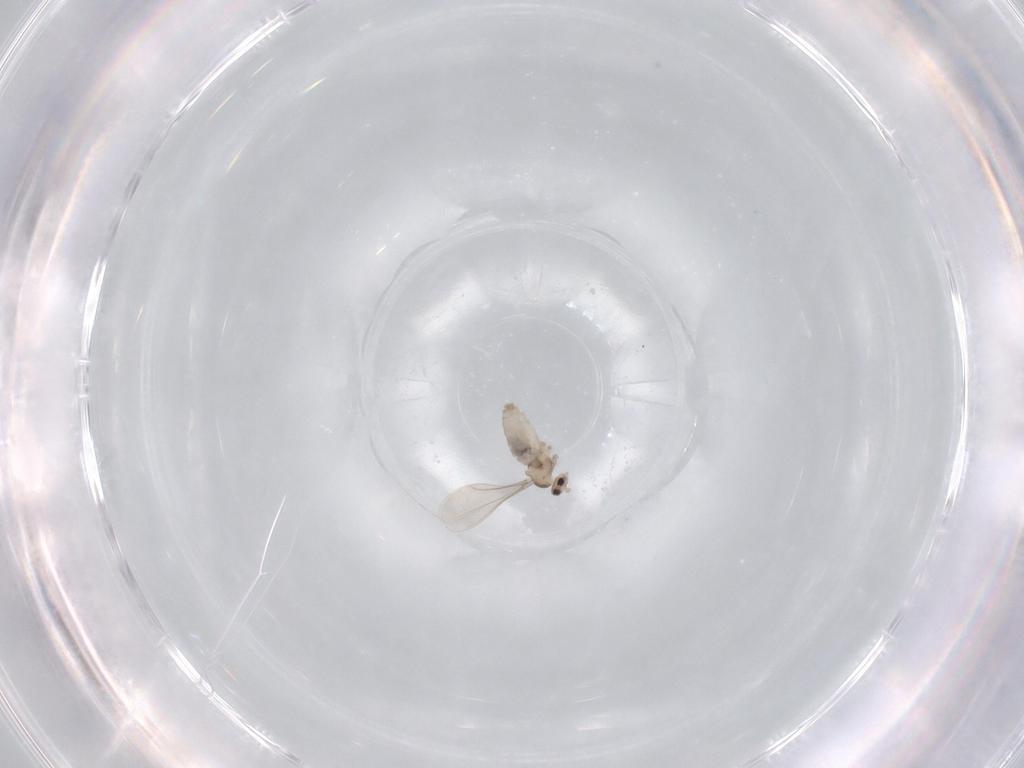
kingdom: Animalia
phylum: Arthropoda
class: Insecta
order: Diptera
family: Cecidomyiidae
